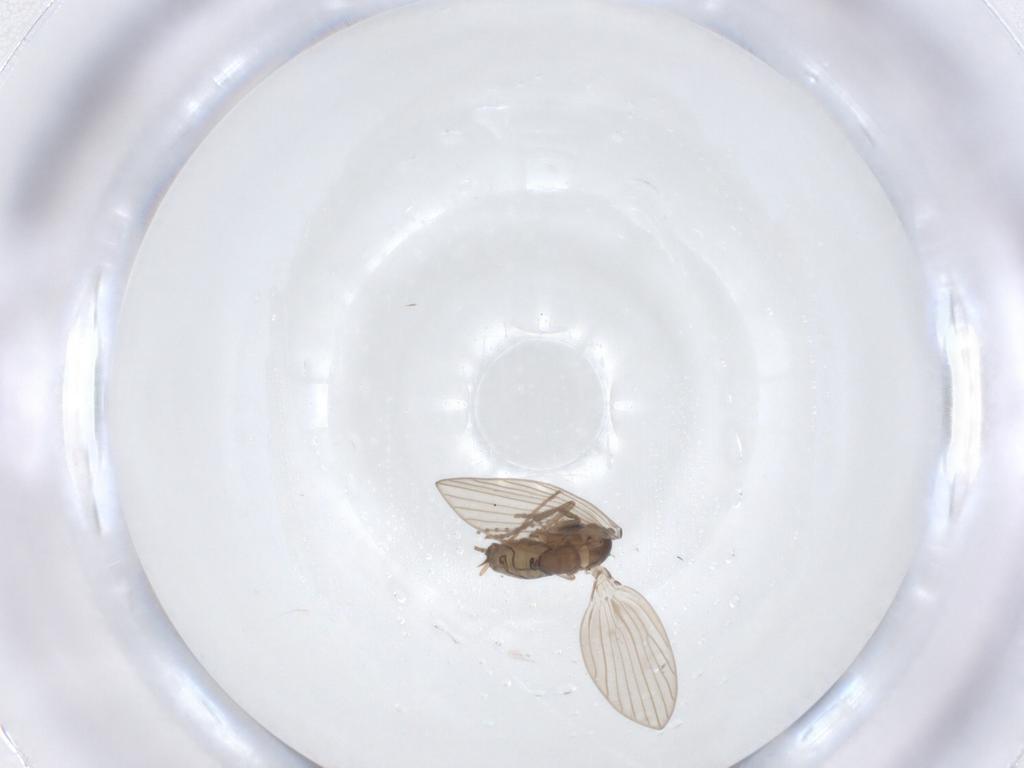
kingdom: Animalia
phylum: Arthropoda
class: Insecta
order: Diptera
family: Psychodidae
